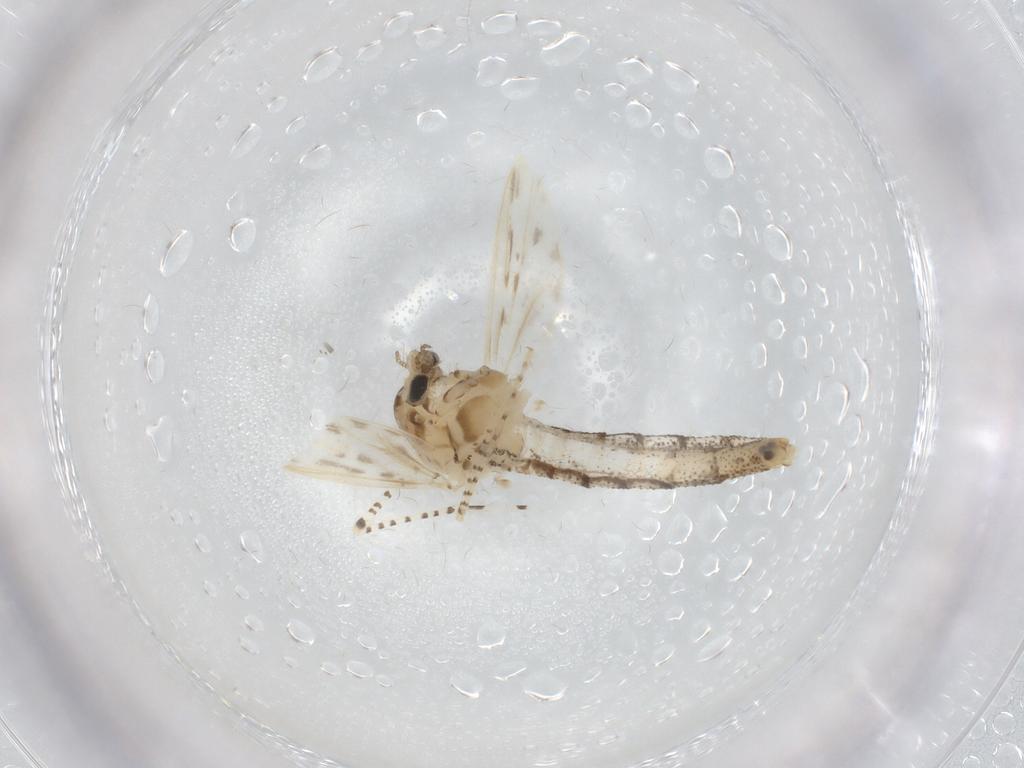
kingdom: Animalia
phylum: Arthropoda
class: Insecta
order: Diptera
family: Chaoboridae
